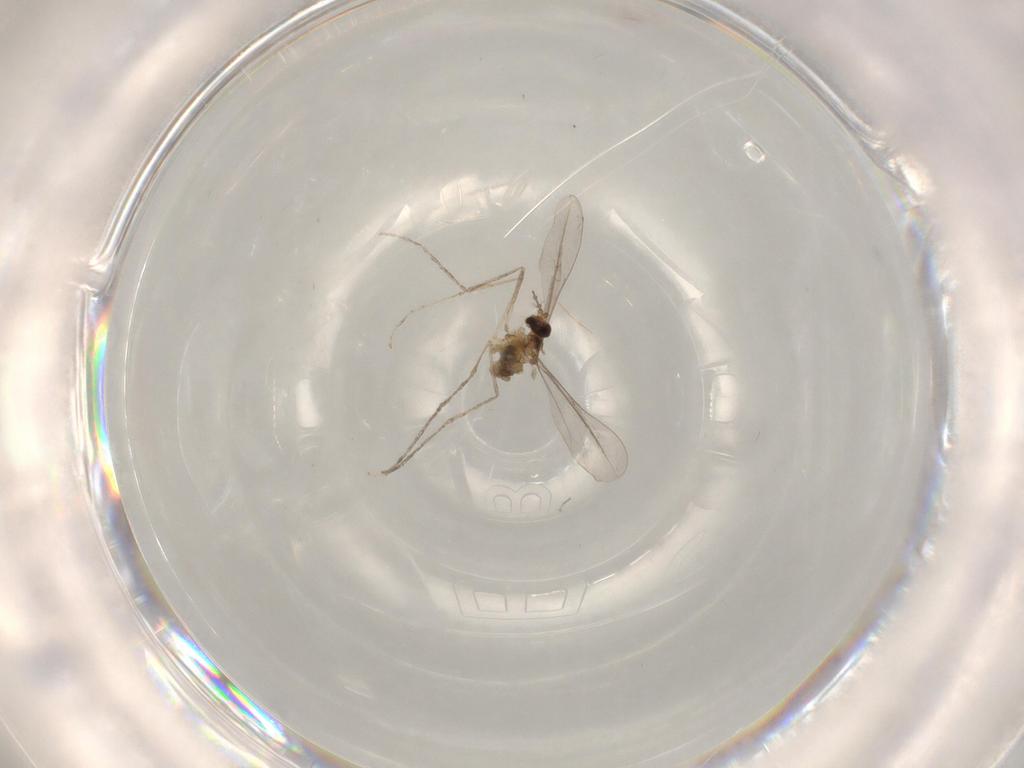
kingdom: Animalia
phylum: Arthropoda
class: Insecta
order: Diptera
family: Chironomidae
